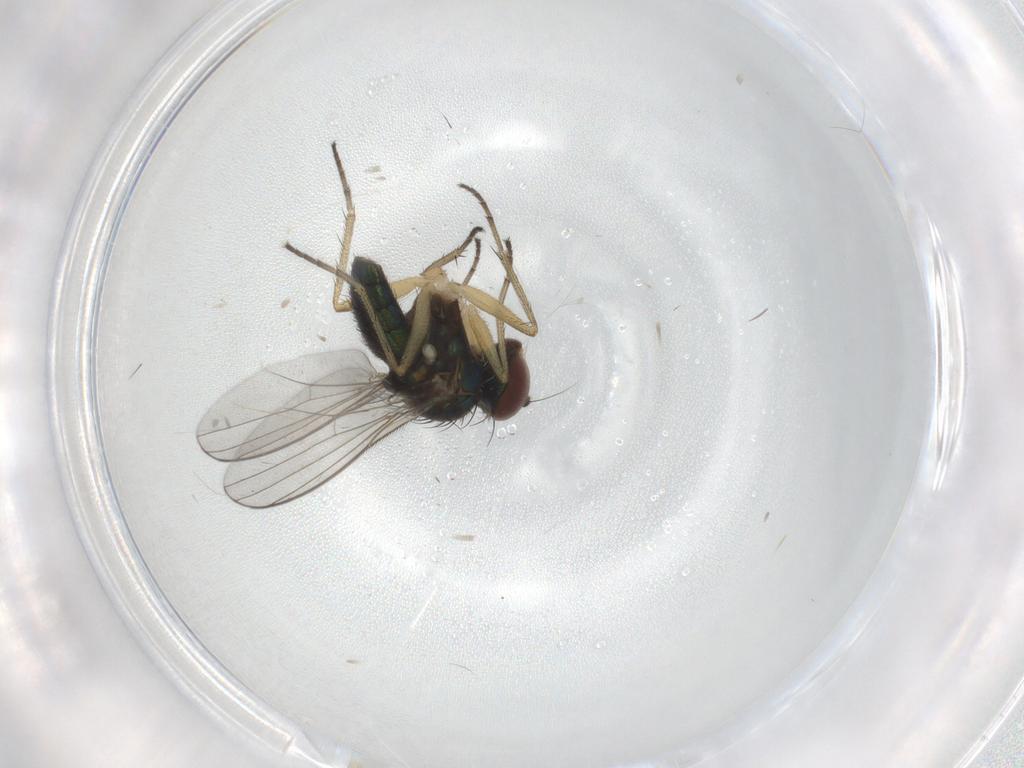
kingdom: Animalia
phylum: Arthropoda
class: Insecta
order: Diptera
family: Dolichopodidae
